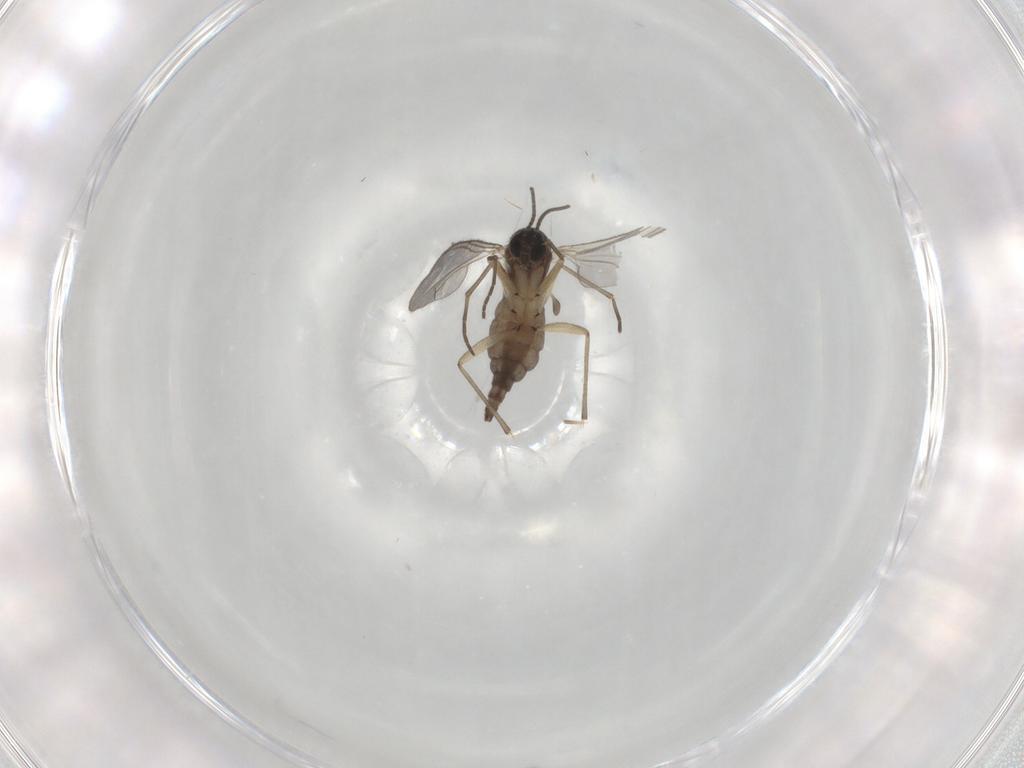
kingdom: Animalia
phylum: Arthropoda
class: Insecta
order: Diptera
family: Sciaridae
